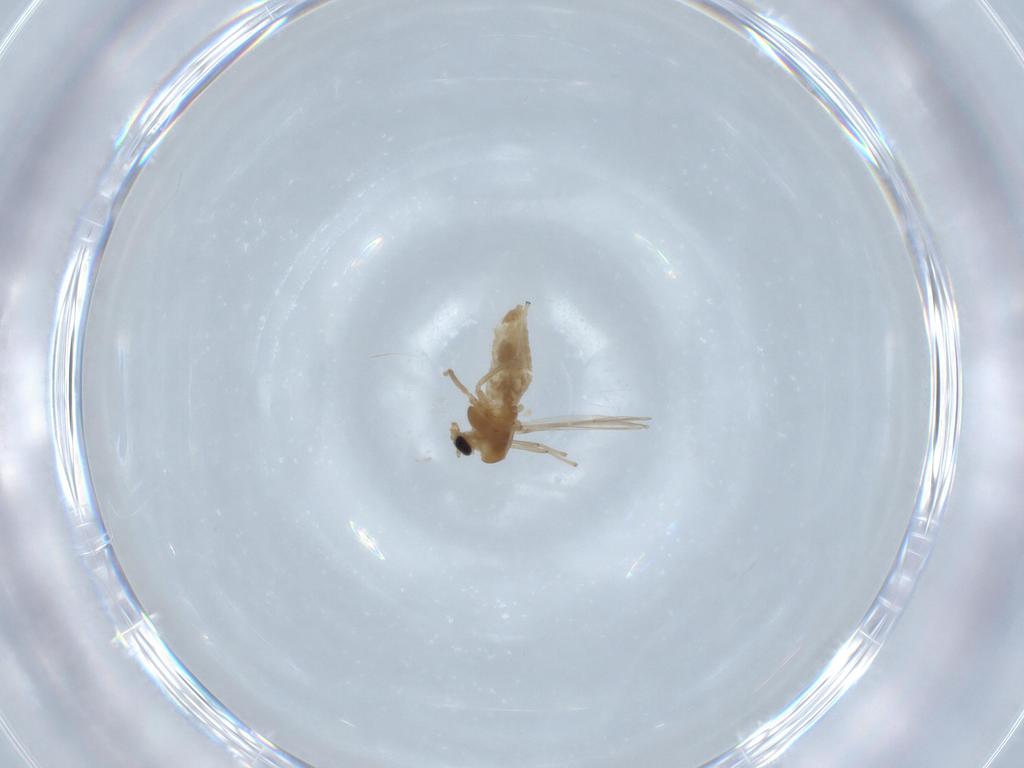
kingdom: Animalia
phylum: Arthropoda
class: Insecta
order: Diptera
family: Chironomidae
